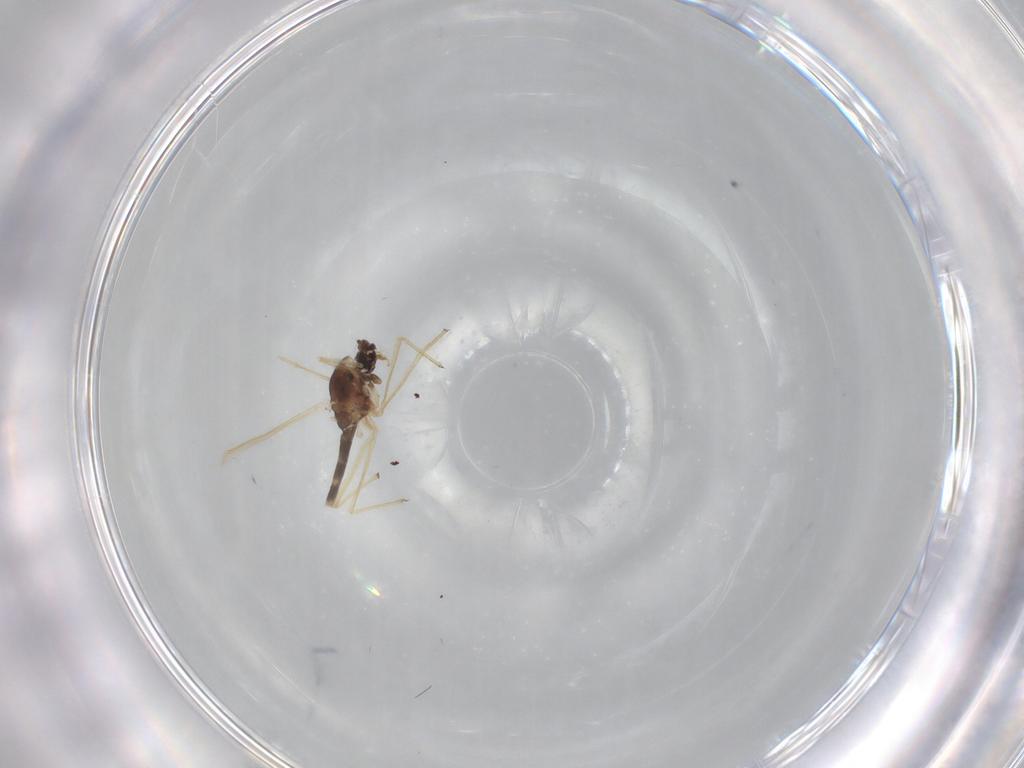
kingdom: Animalia
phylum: Arthropoda
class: Insecta
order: Diptera
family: Chironomidae
